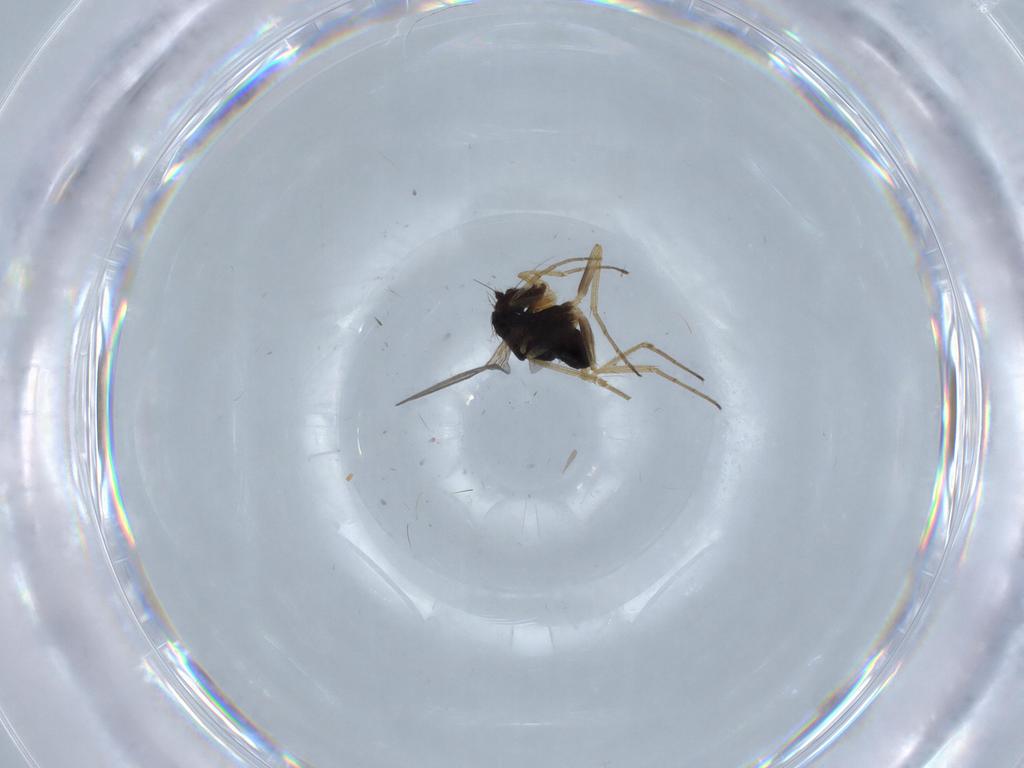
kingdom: Animalia
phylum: Arthropoda
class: Insecta
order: Diptera
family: Dolichopodidae
